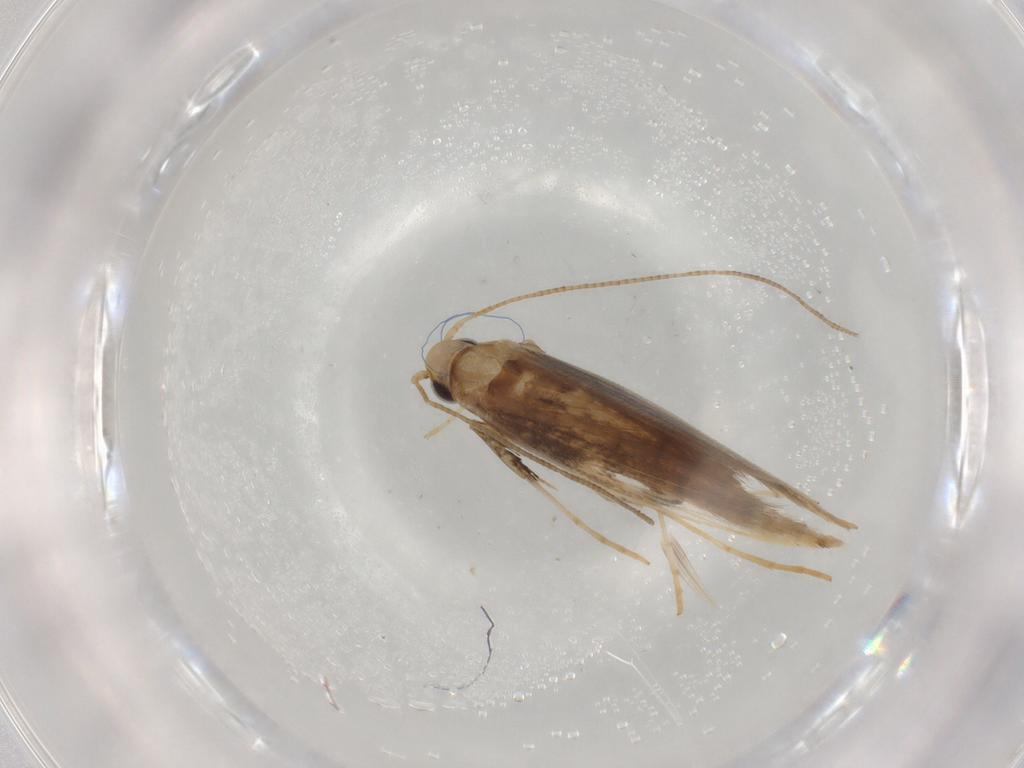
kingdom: Animalia
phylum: Arthropoda
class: Insecta
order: Lepidoptera
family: Gracillariidae
